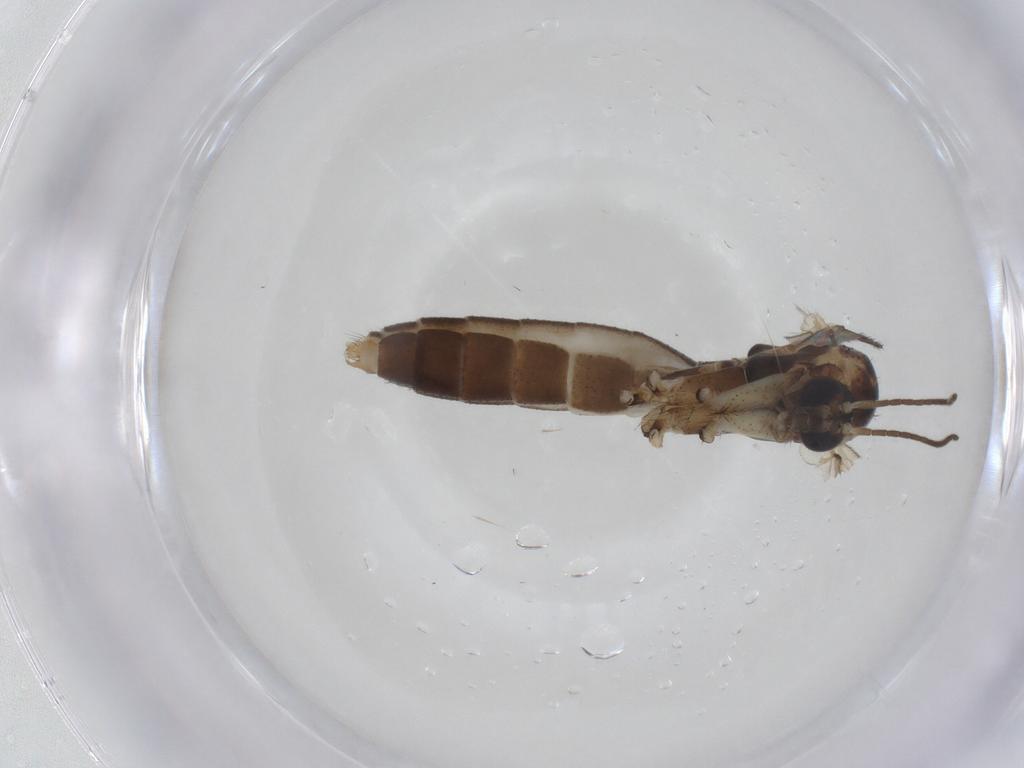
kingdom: Animalia
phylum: Arthropoda
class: Insecta
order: Diptera
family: Mycetophilidae
